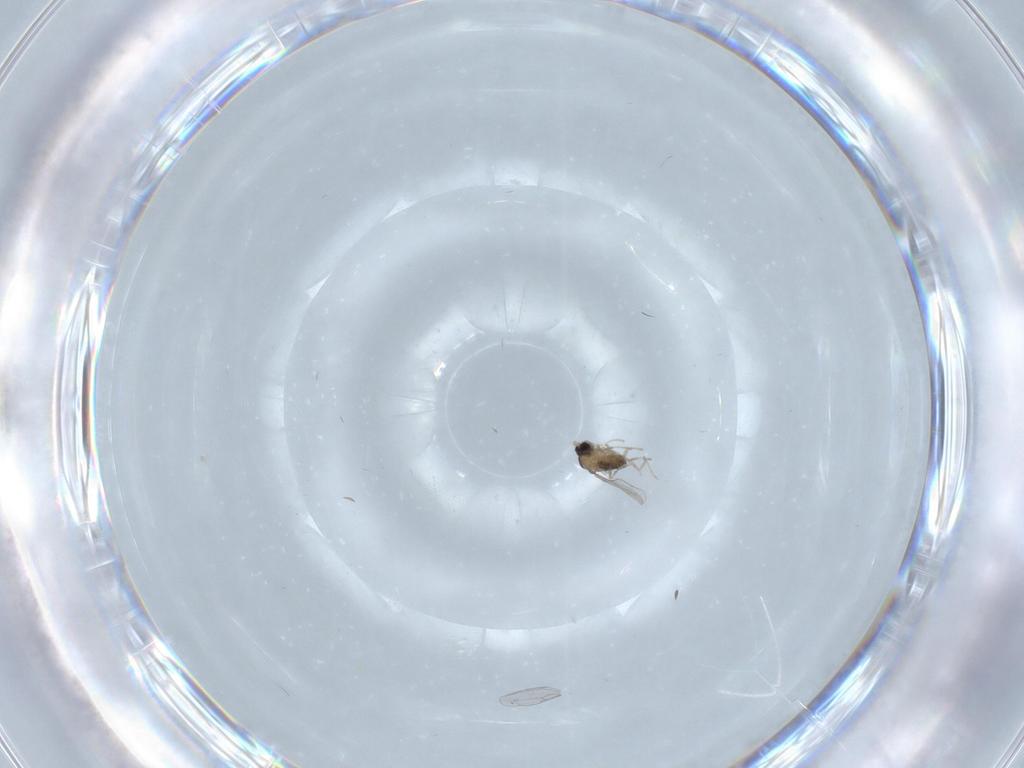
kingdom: Animalia
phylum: Arthropoda
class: Insecta
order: Diptera
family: Cecidomyiidae
